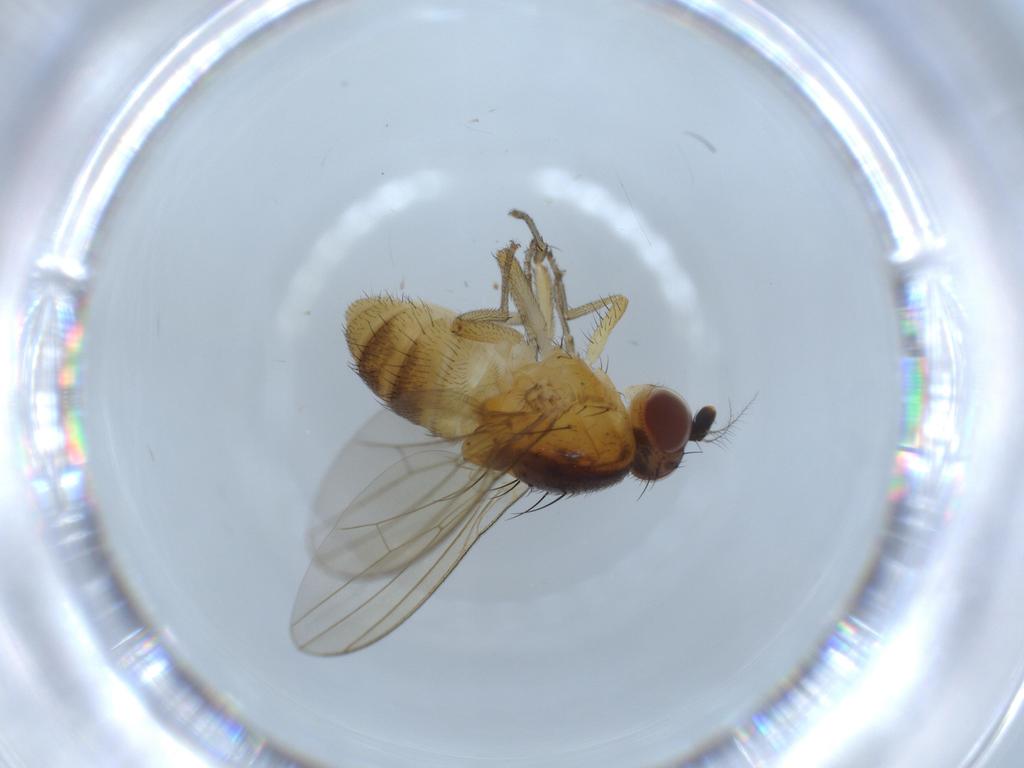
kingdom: Animalia
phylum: Arthropoda
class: Insecta
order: Diptera
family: Lauxaniidae
